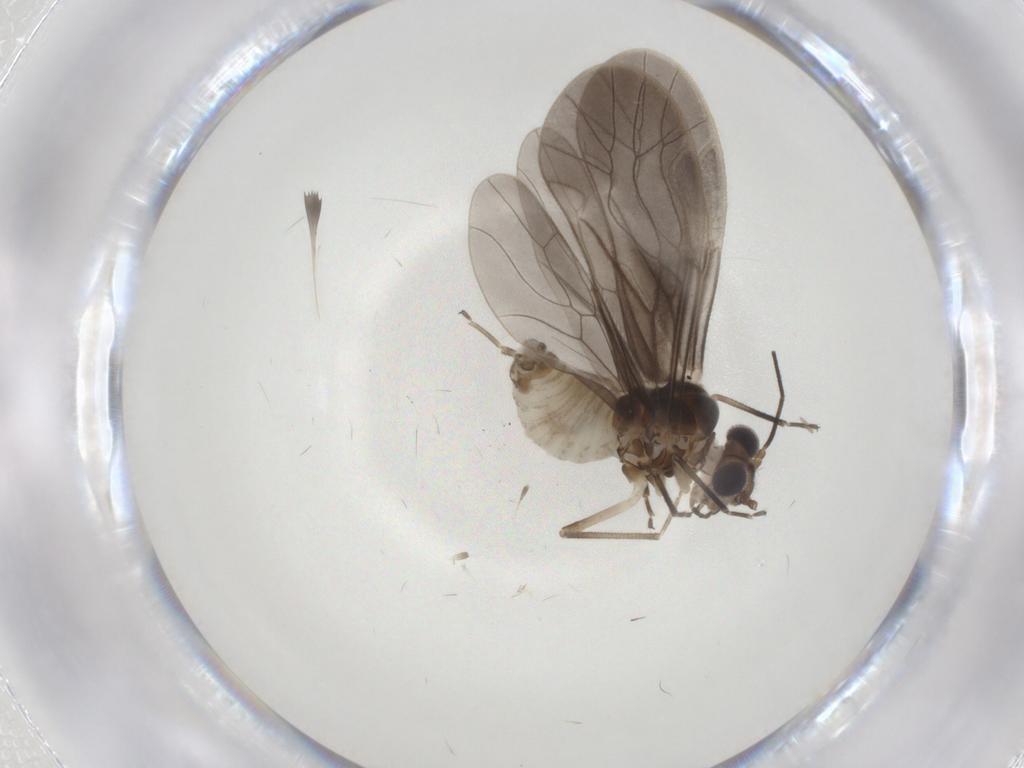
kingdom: Animalia
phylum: Arthropoda
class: Insecta
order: Psocodea
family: Caeciliusidae
